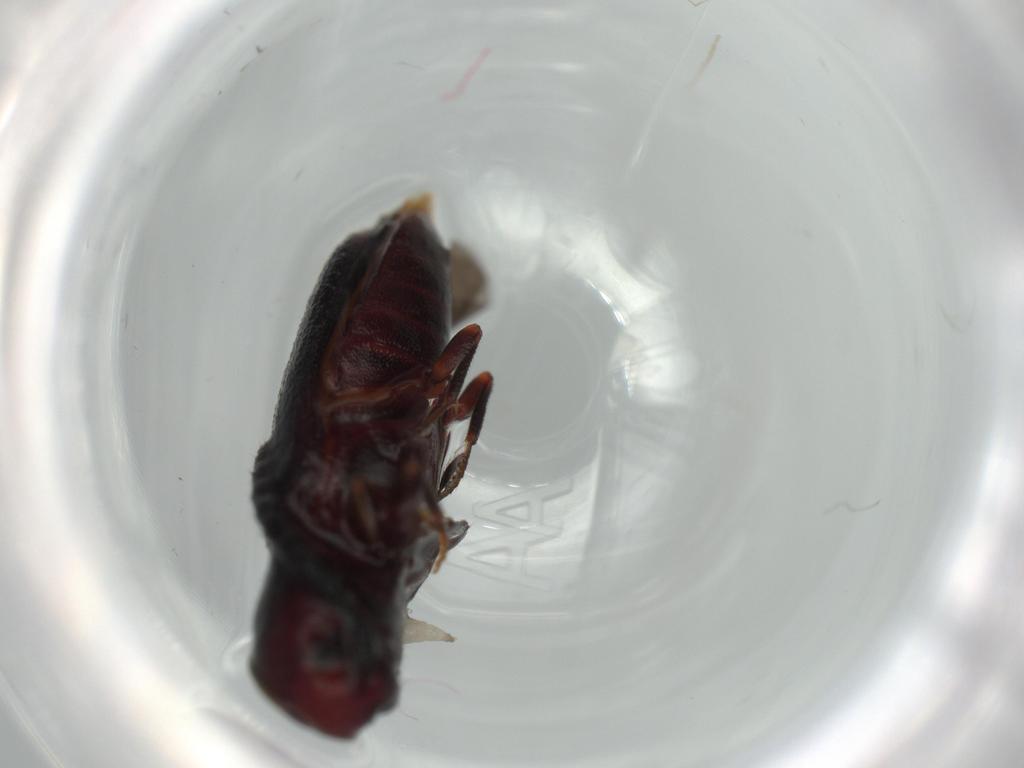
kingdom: Animalia
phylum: Arthropoda
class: Insecta
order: Coleoptera
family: Eucnemidae
